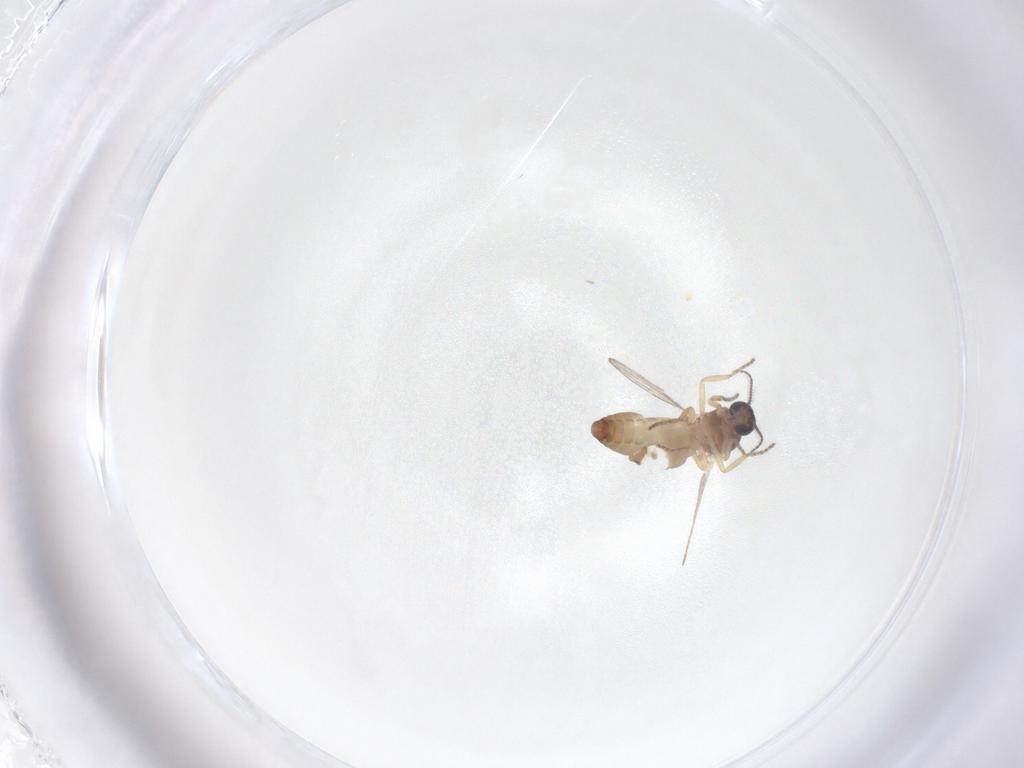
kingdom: Animalia
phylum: Arthropoda
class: Insecta
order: Diptera
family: Ceratopogonidae
